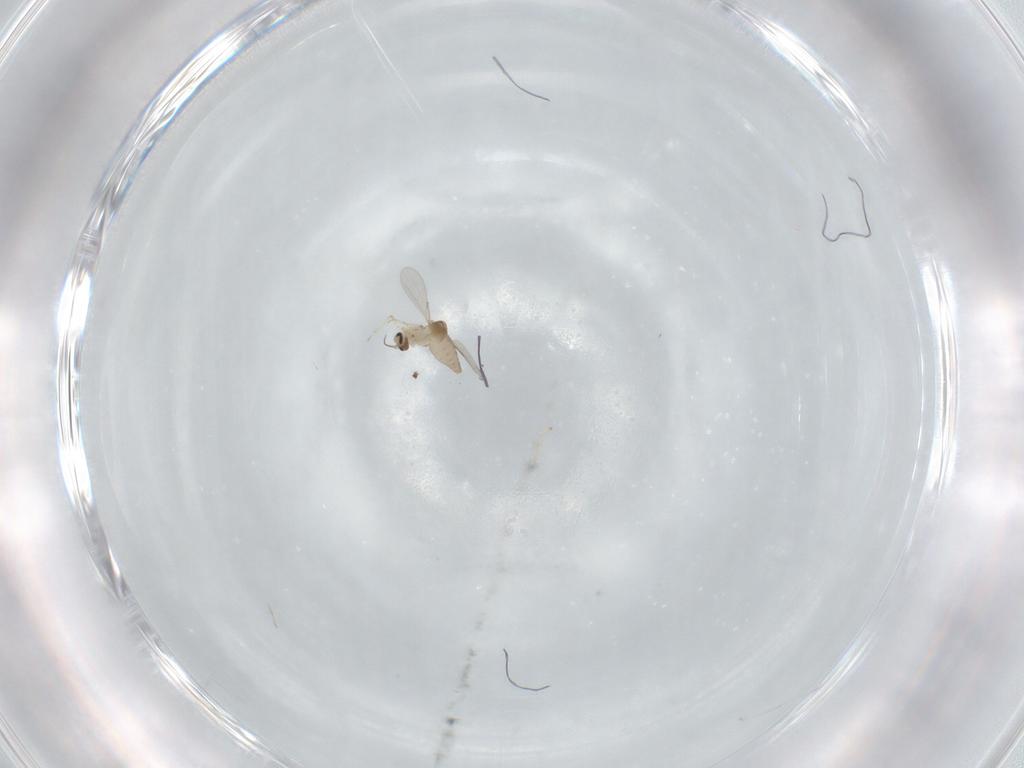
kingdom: Animalia
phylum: Arthropoda
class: Insecta
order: Diptera
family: Ceratopogonidae
